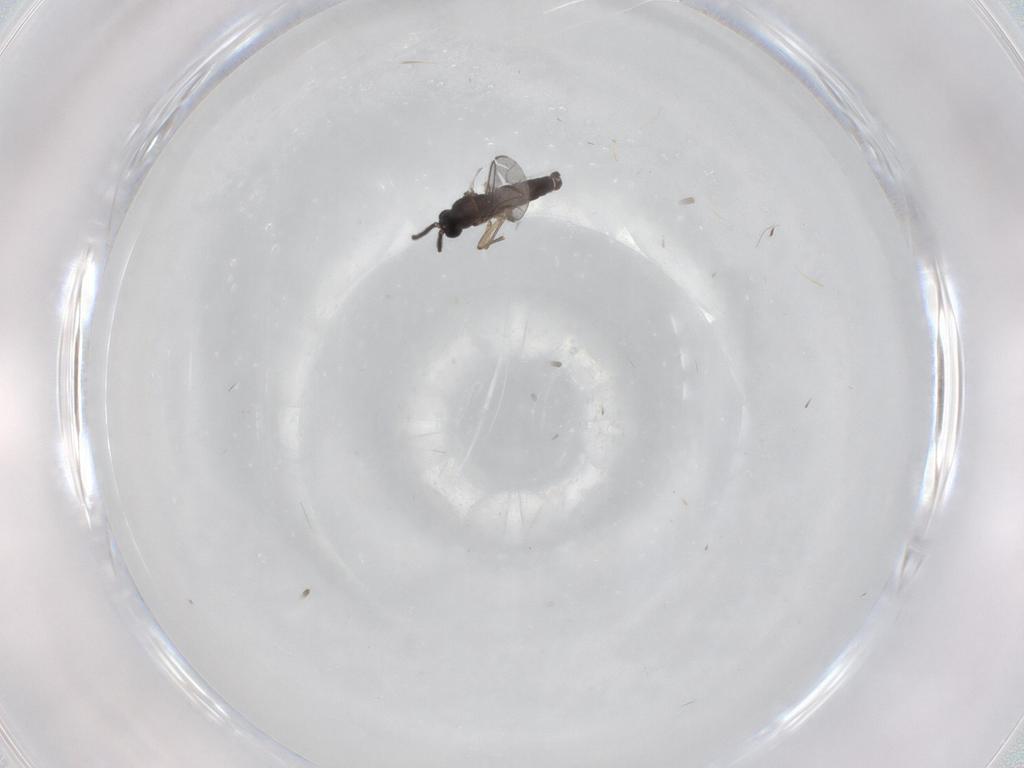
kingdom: Animalia
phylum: Arthropoda
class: Insecta
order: Diptera
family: Sciaridae
